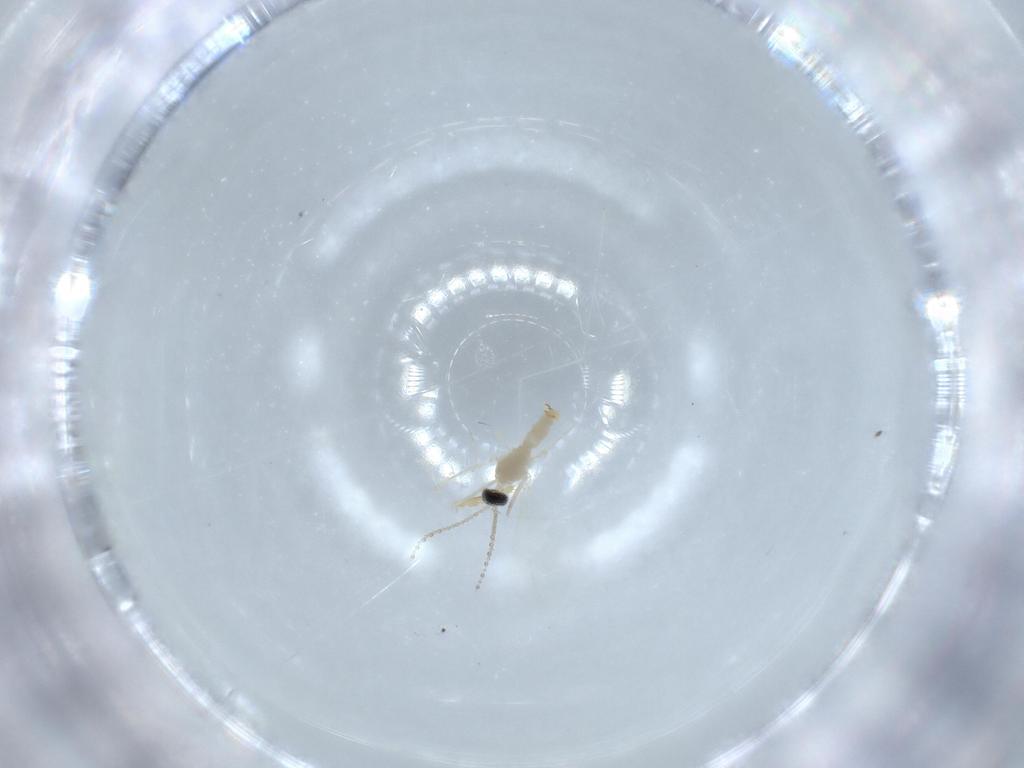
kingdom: Animalia
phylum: Arthropoda
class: Insecta
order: Diptera
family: Cecidomyiidae
